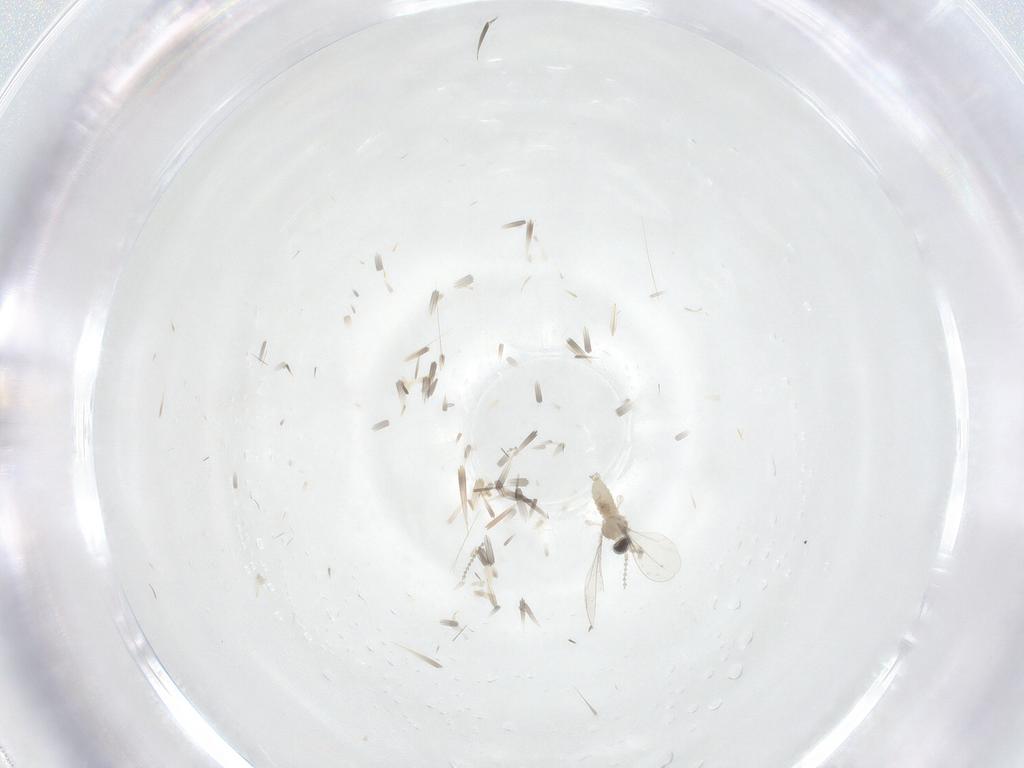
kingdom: Animalia
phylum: Arthropoda
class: Insecta
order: Diptera
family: Cecidomyiidae
